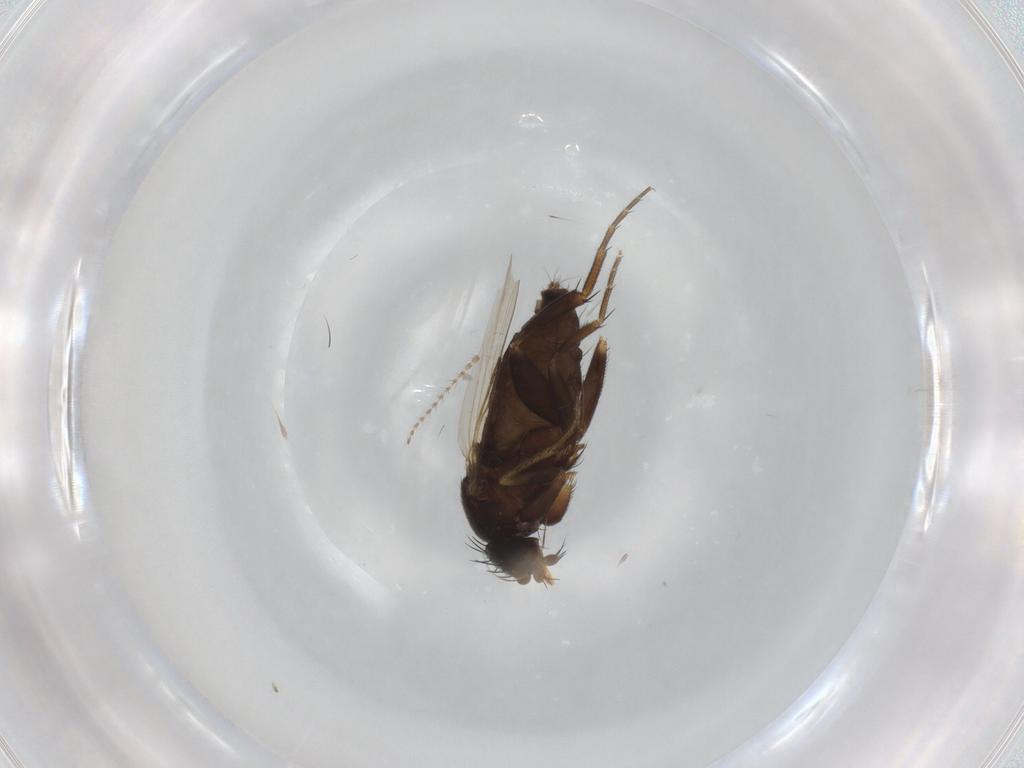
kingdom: Animalia
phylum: Arthropoda
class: Insecta
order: Diptera
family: Phoridae
